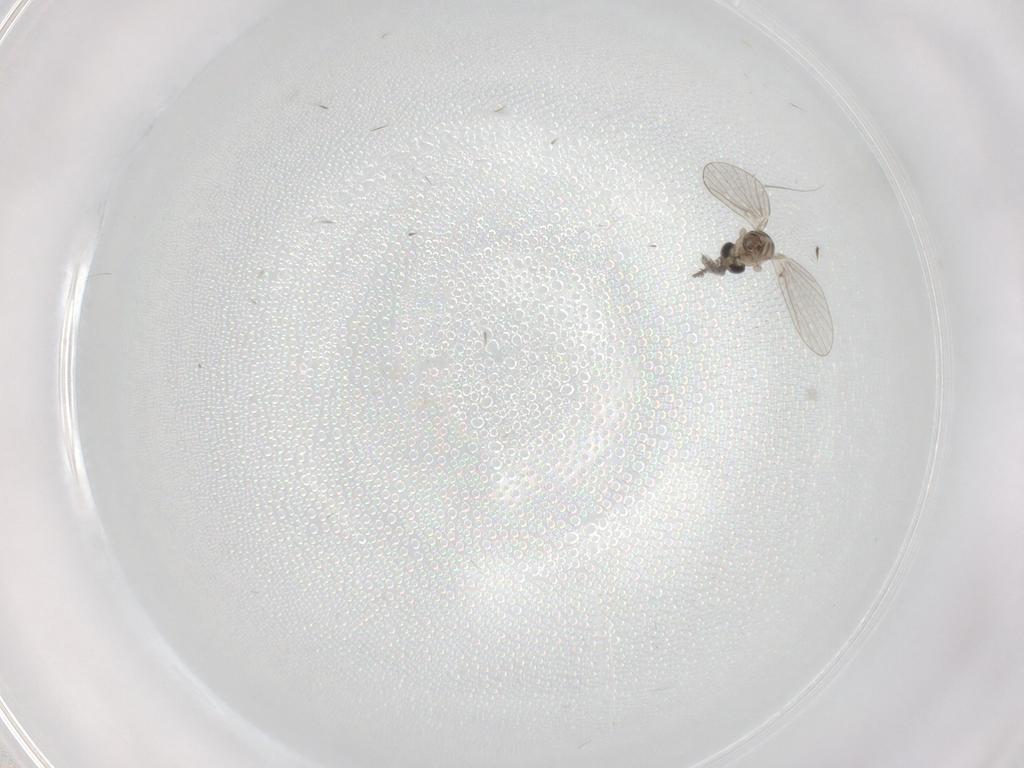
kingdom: Animalia
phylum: Arthropoda
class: Insecta
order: Diptera
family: Psychodidae
